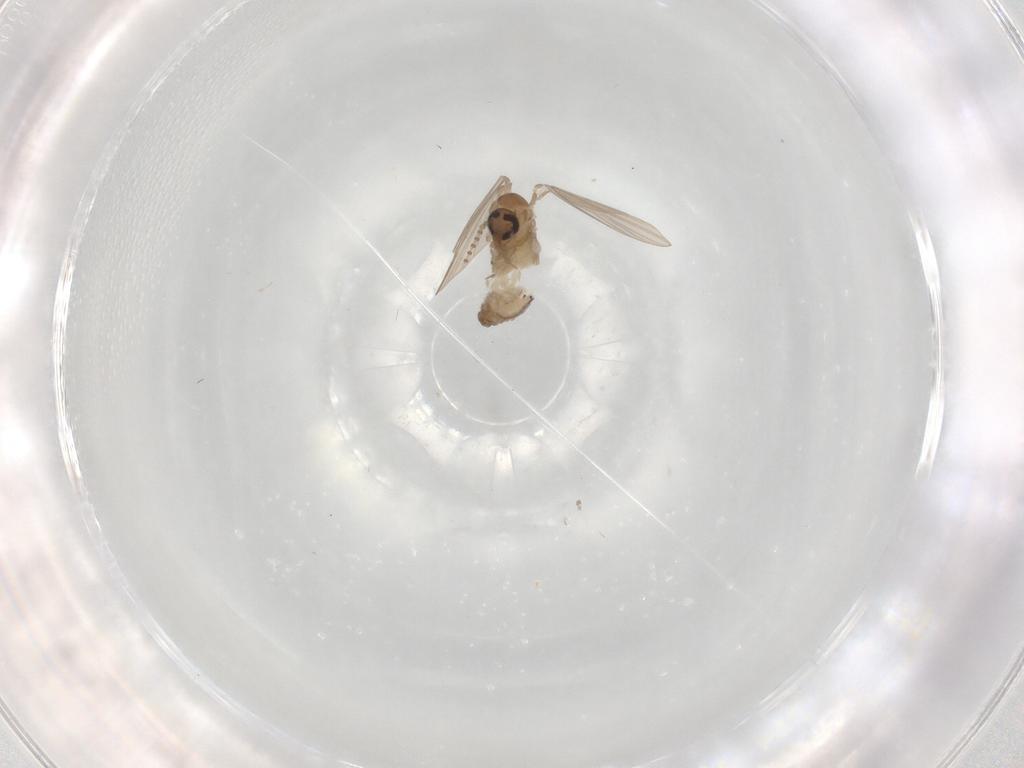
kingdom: Animalia
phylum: Arthropoda
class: Insecta
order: Diptera
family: Psychodidae
